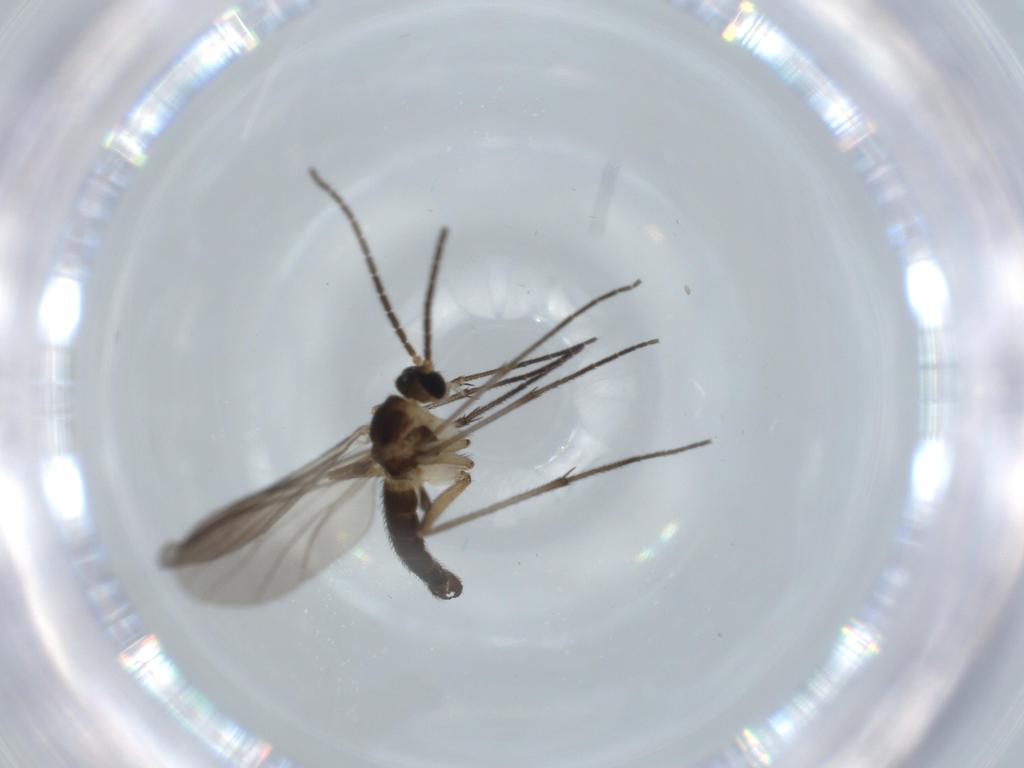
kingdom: Animalia
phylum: Arthropoda
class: Insecta
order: Diptera
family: Sciaridae
